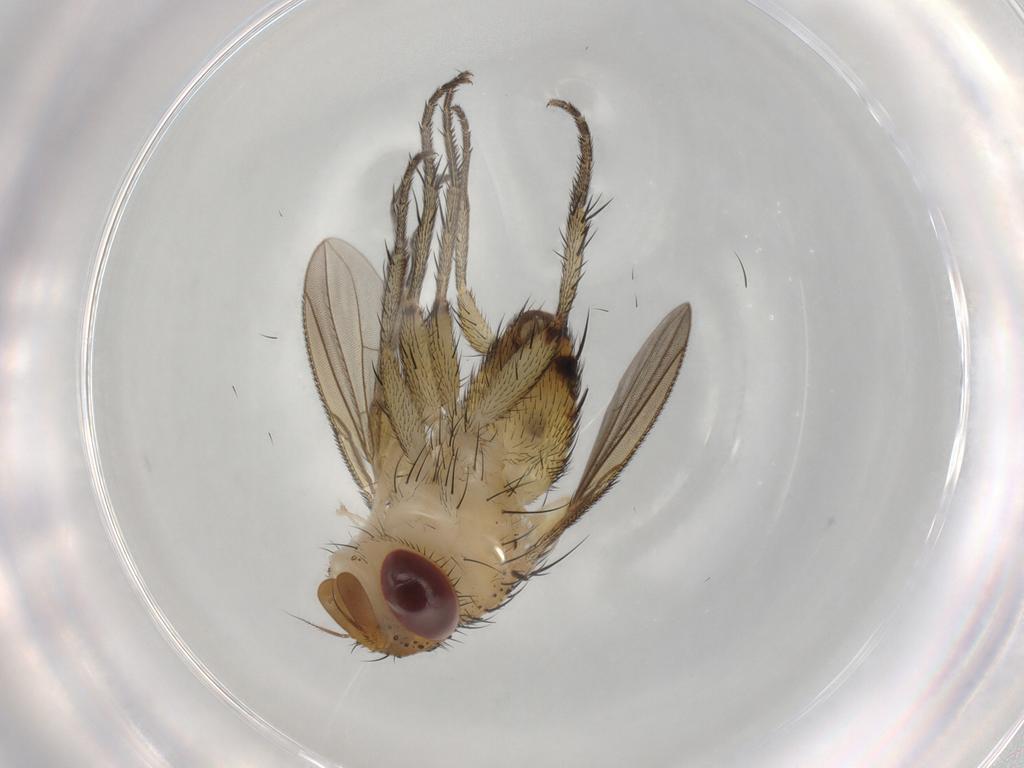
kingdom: Animalia
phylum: Arthropoda
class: Insecta
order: Diptera
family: Tachinidae
